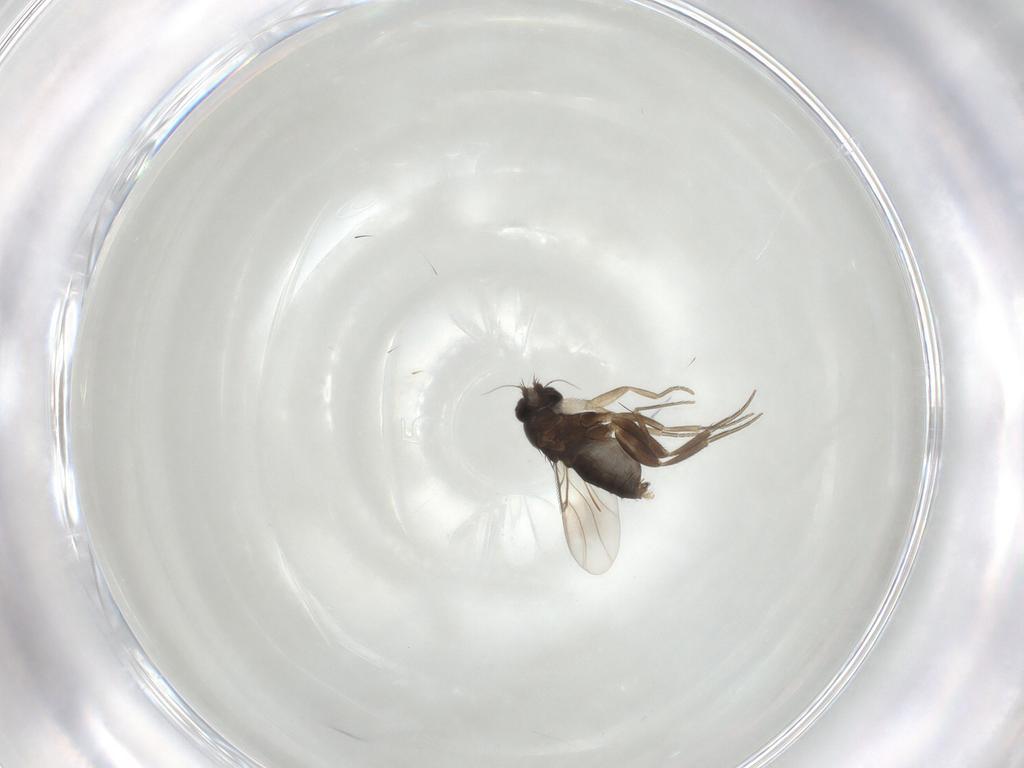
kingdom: Animalia
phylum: Arthropoda
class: Insecta
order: Diptera
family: Phoridae
